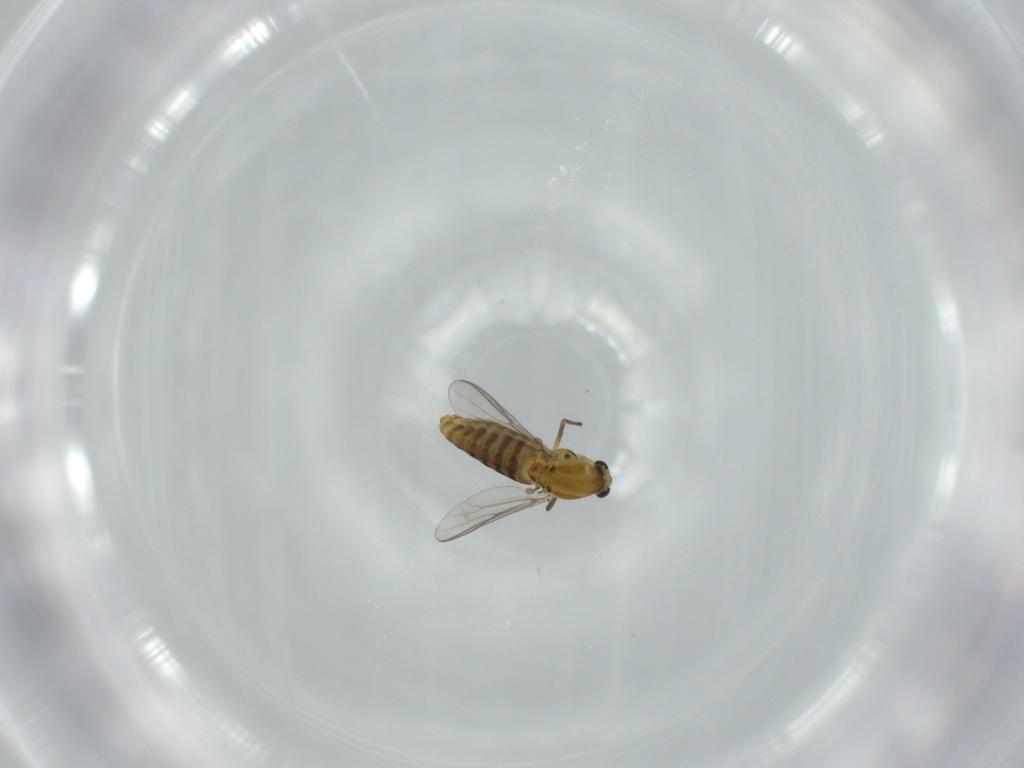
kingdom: Animalia
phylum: Arthropoda
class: Insecta
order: Diptera
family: Chironomidae
